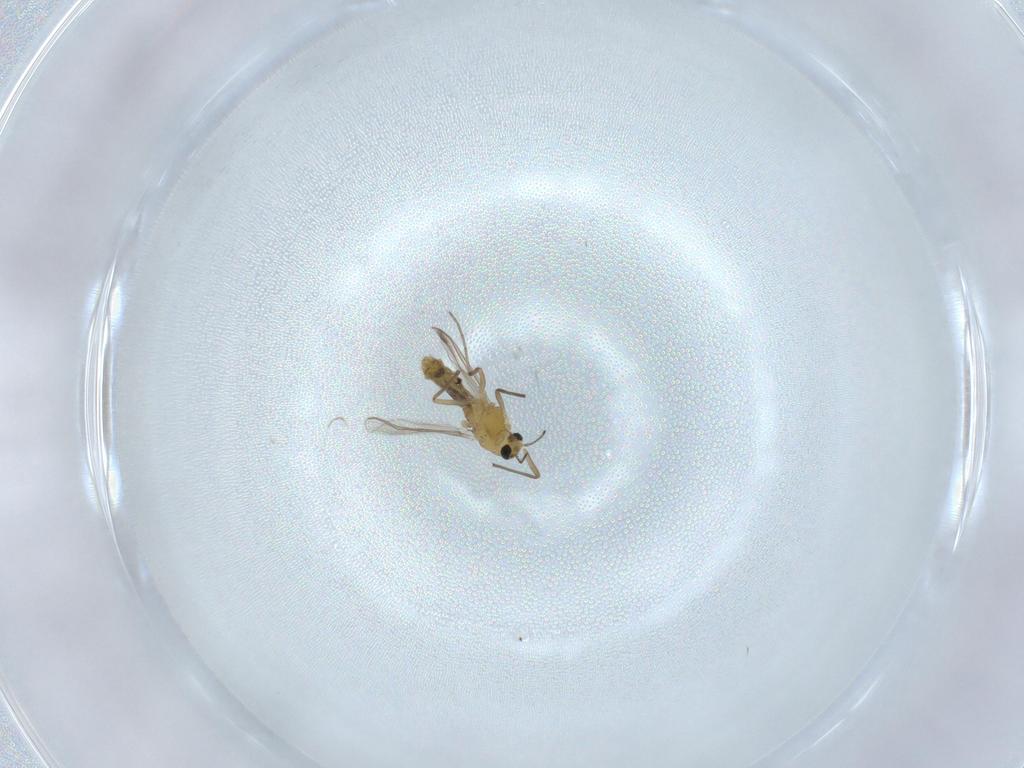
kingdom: Animalia
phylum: Arthropoda
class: Insecta
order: Diptera
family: Chironomidae
